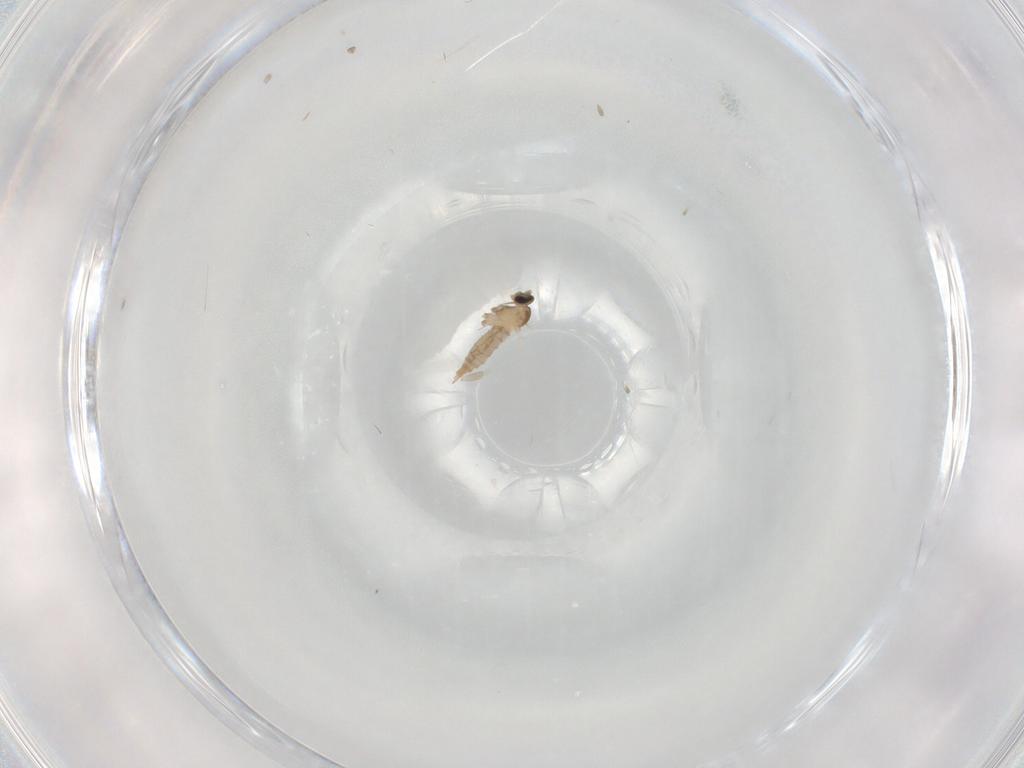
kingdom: Animalia
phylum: Arthropoda
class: Insecta
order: Diptera
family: Cecidomyiidae
